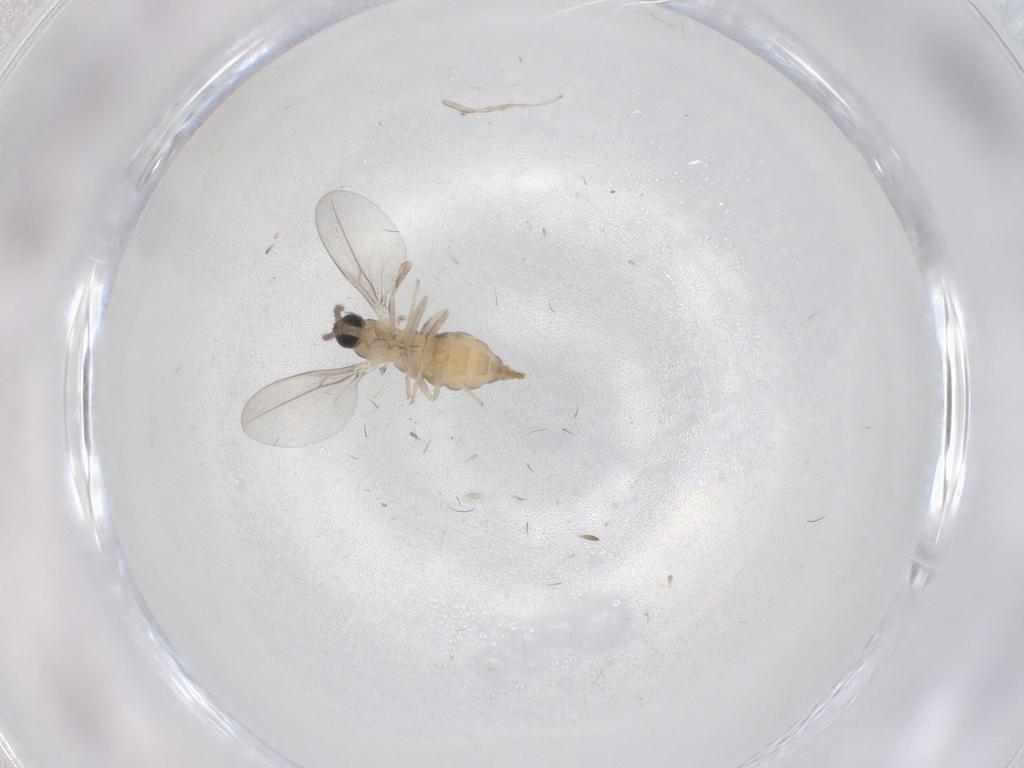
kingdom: Animalia
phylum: Arthropoda
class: Insecta
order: Diptera
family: Cecidomyiidae
